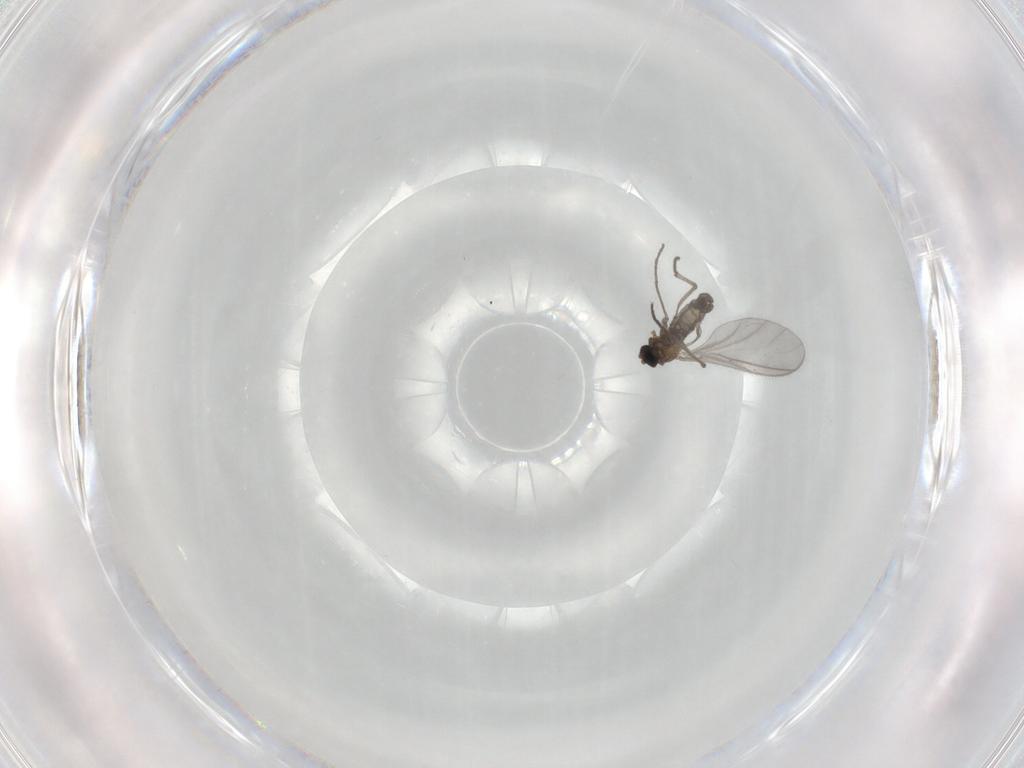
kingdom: Animalia
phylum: Arthropoda
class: Insecta
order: Diptera
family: Sciaridae
